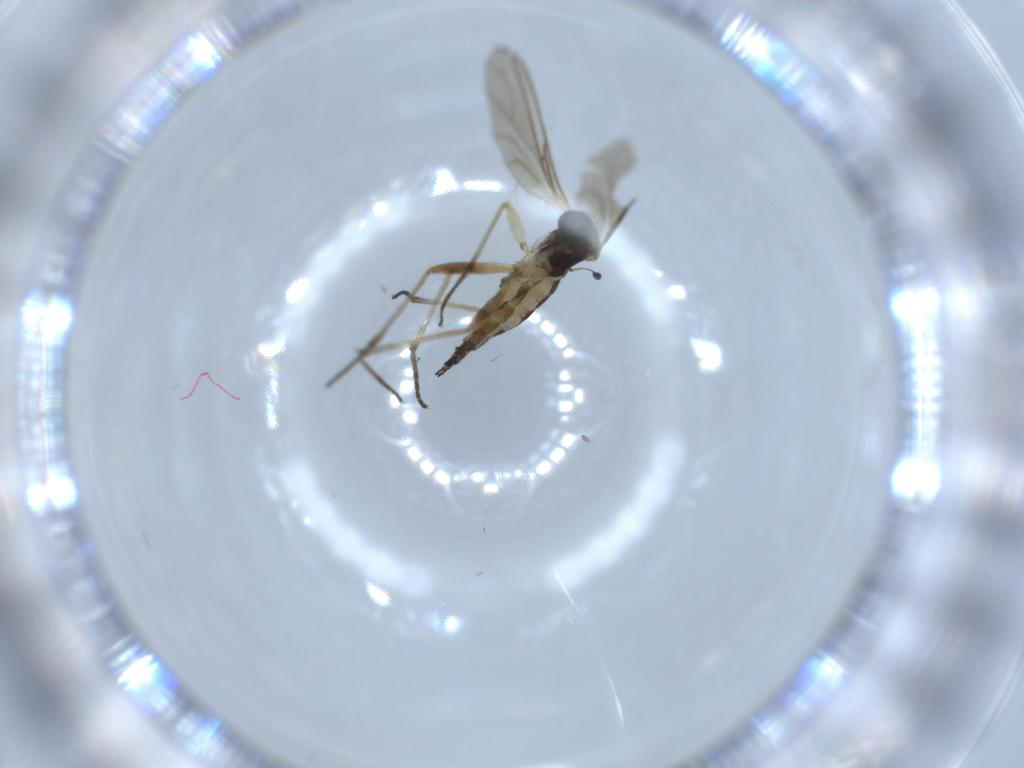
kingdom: Animalia
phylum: Arthropoda
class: Insecta
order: Diptera
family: Sciaridae
